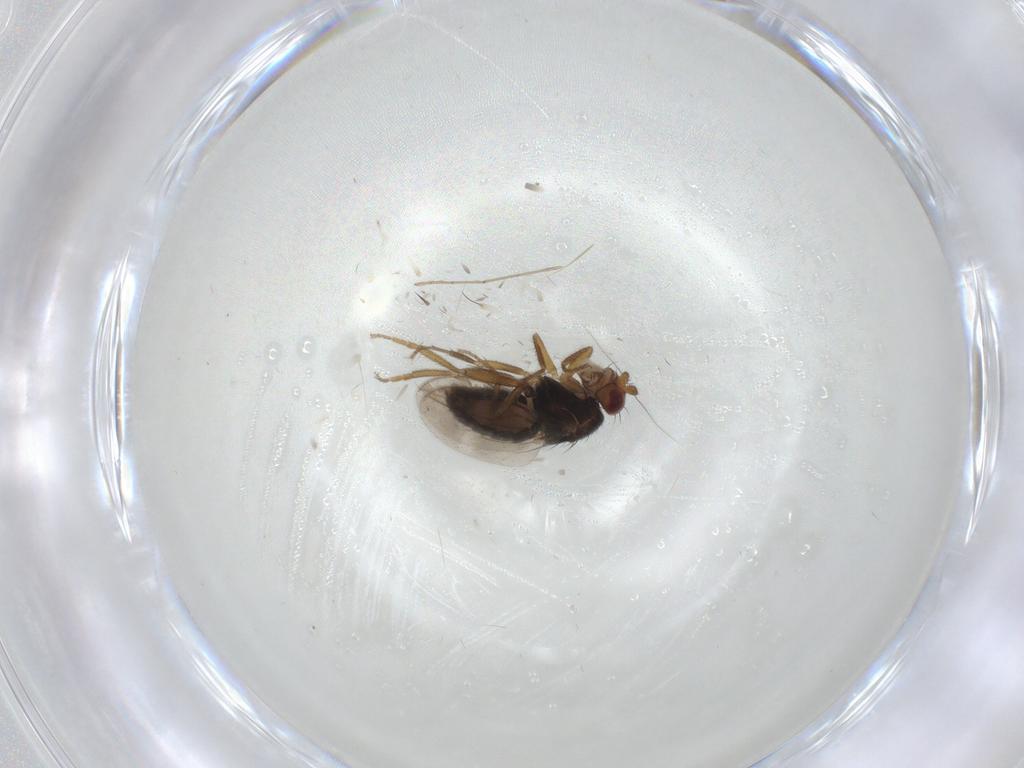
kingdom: Animalia
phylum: Arthropoda
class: Insecta
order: Diptera
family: Sphaeroceridae
